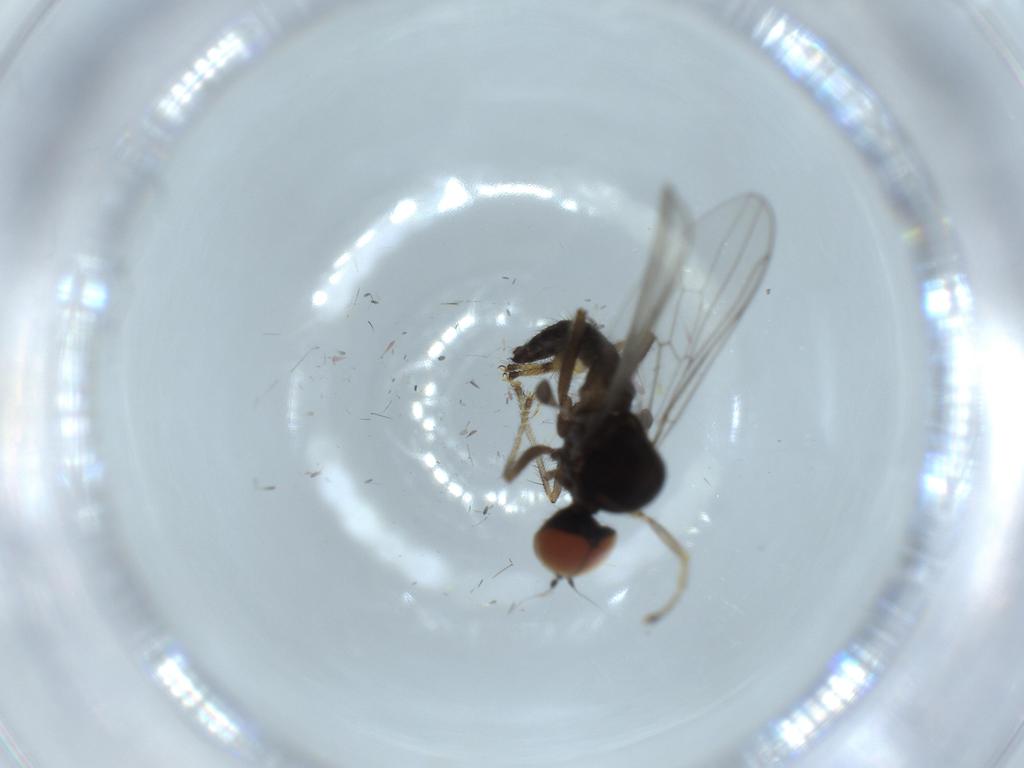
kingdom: Animalia
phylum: Arthropoda
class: Insecta
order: Diptera
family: Hybotidae
